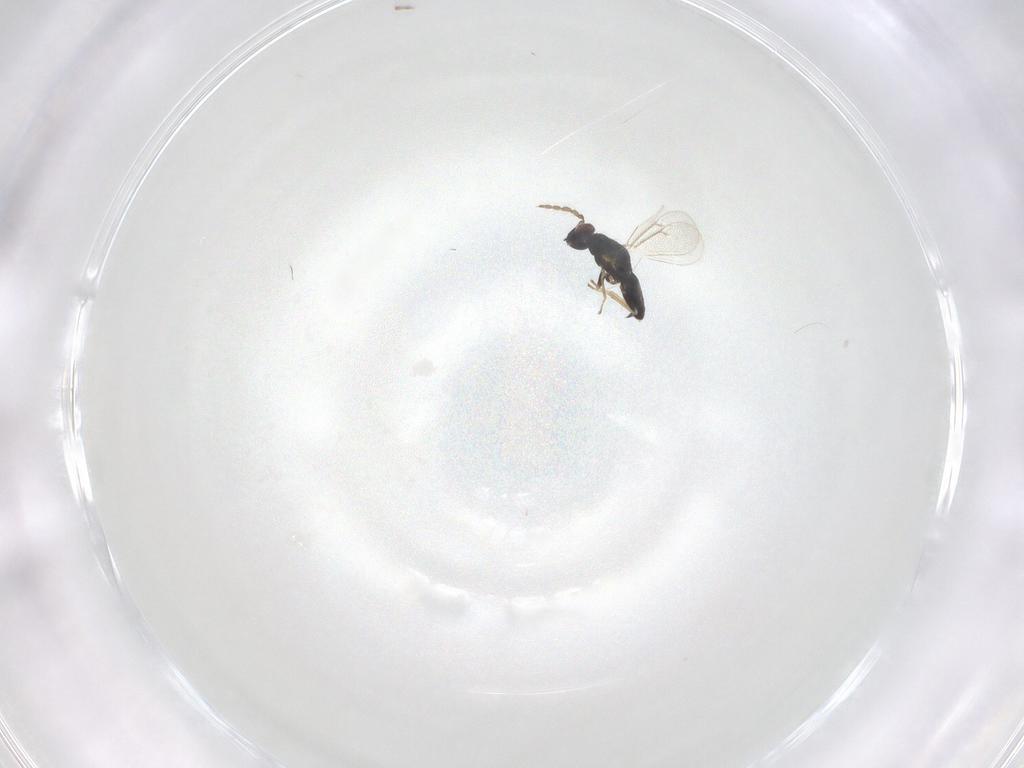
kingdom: Animalia
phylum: Arthropoda
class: Insecta
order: Hymenoptera
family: Eulophidae
